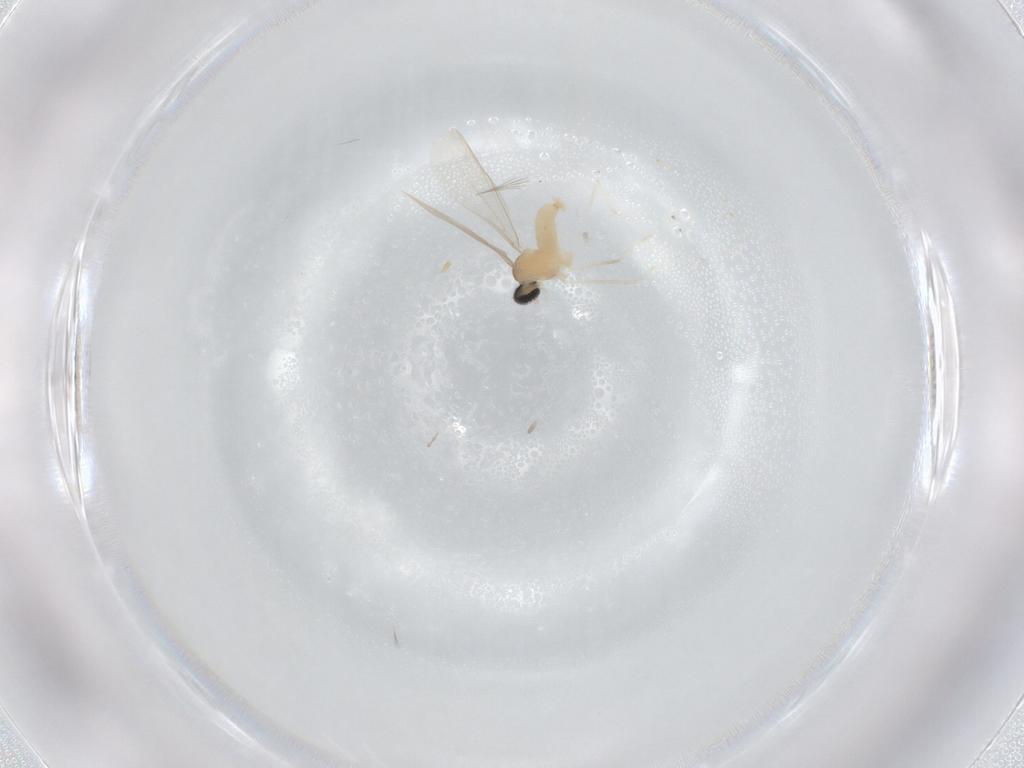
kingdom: Animalia
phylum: Arthropoda
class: Insecta
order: Diptera
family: Cecidomyiidae
